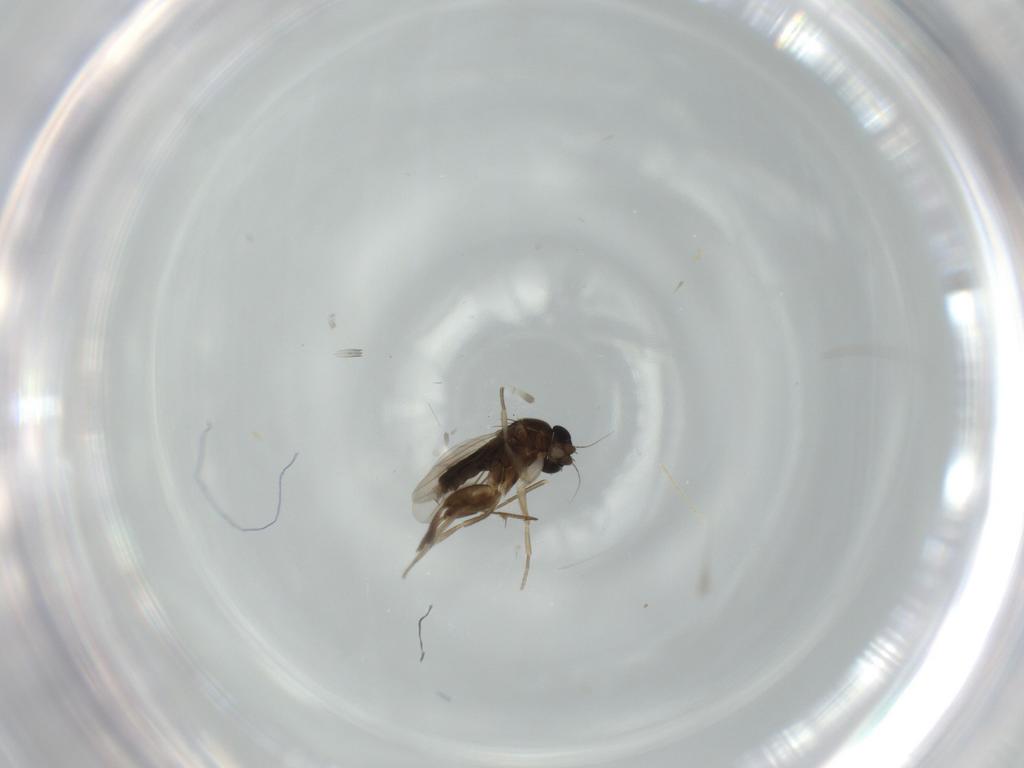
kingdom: Animalia
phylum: Arthropoda
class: Insecta
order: Diptera
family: Phoridae
